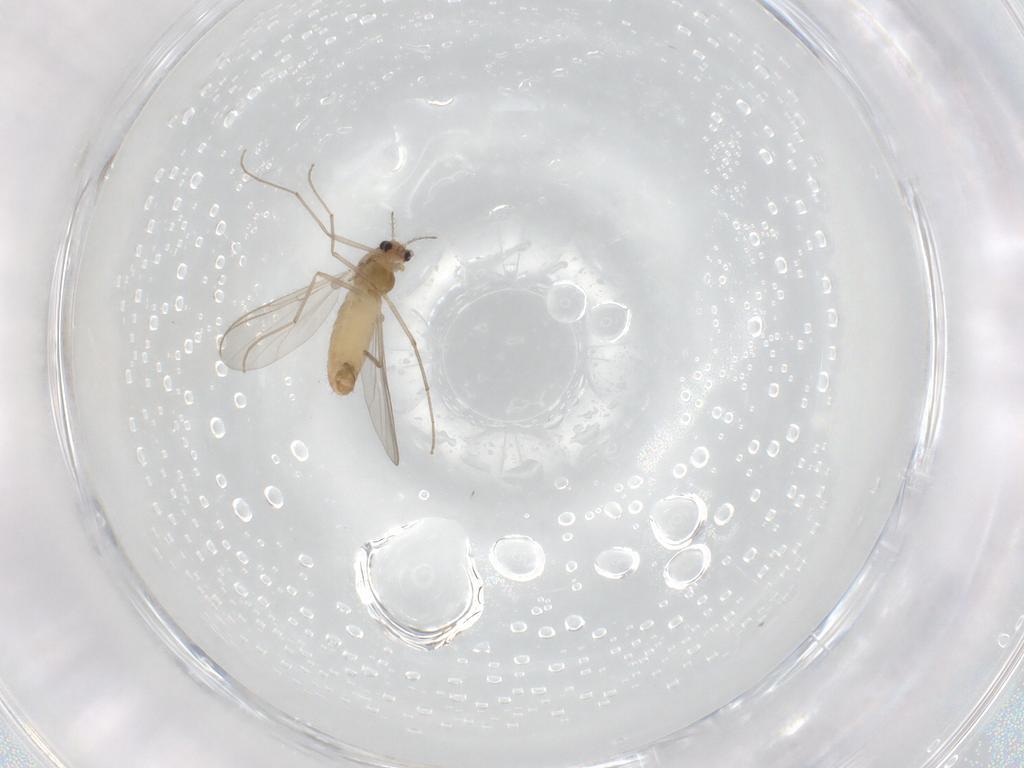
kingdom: Animalia
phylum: Arthropoda
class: Insecta
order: Diptera
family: Chironomidae
